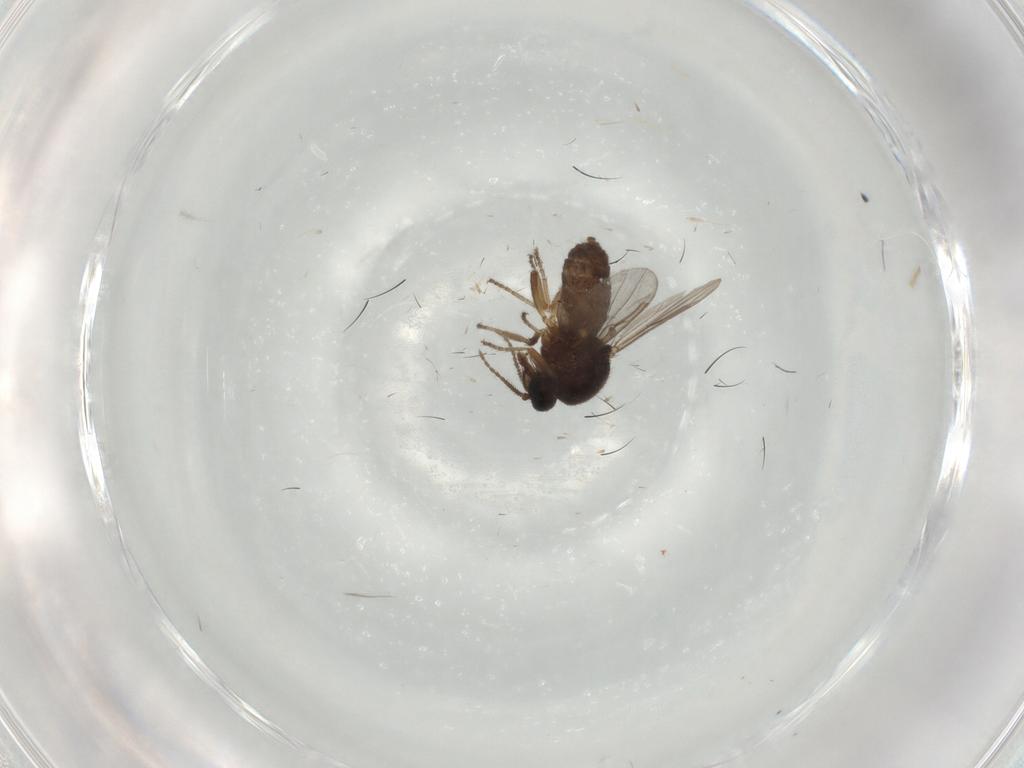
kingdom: Animalia
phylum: Arthropoda
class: Insecta
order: Diptera
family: Ceratopogonidae
